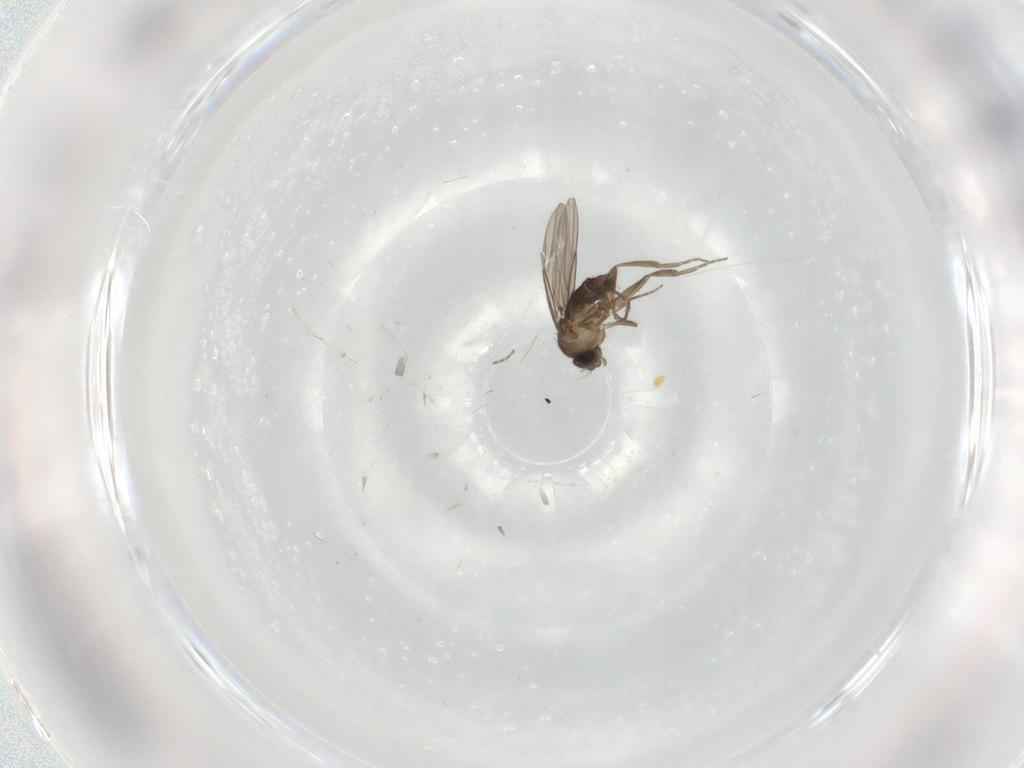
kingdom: Animalia
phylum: Arthropoda
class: Insecta
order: Diptera
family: Chironomidae
